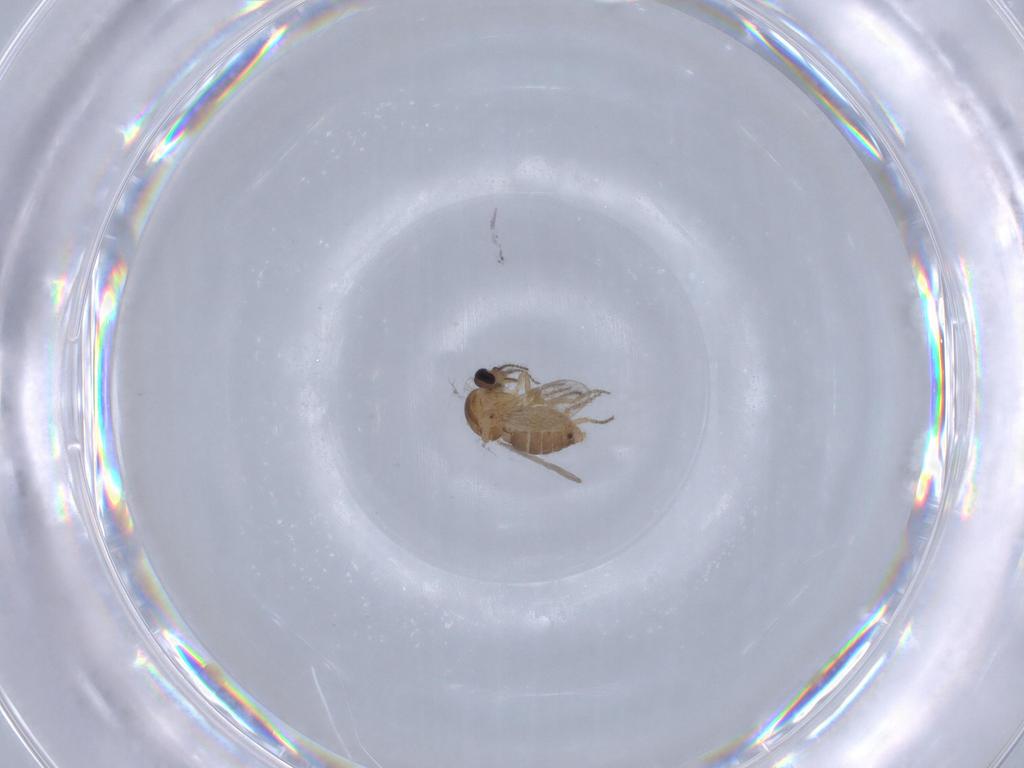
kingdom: Animalia
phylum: Arthropoda
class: Insecta
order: Diptera
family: Ceratopogonidae
